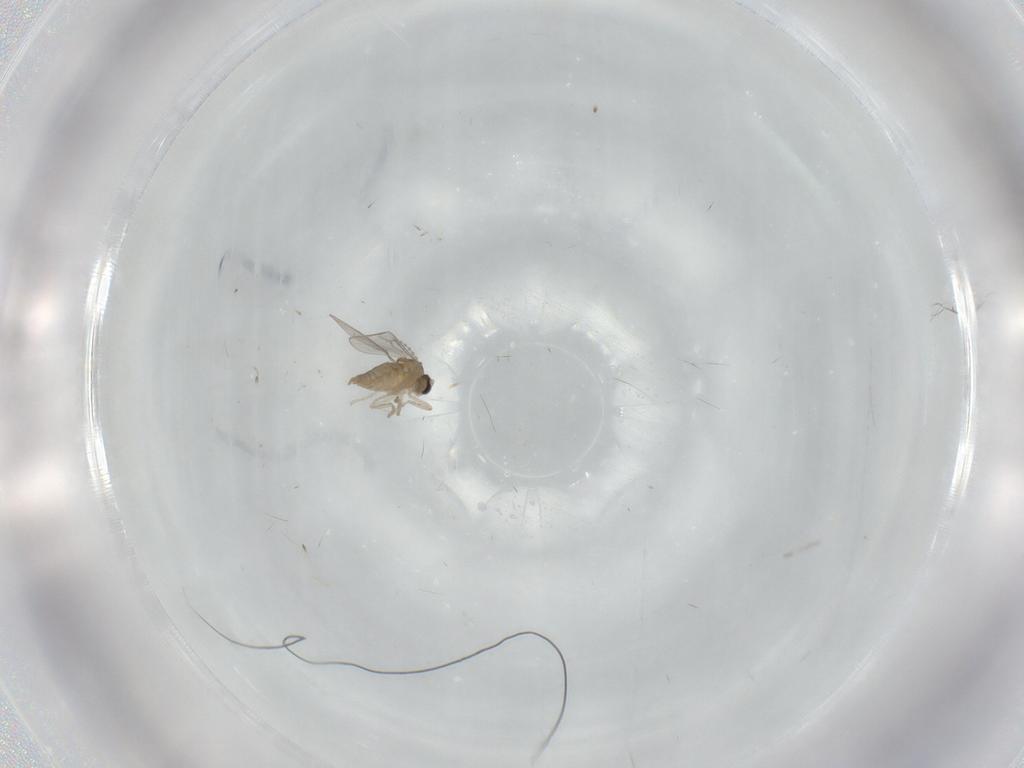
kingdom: Animalia
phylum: Arthropoda
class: Insecta
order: Diptera
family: Cecidomyiidae
